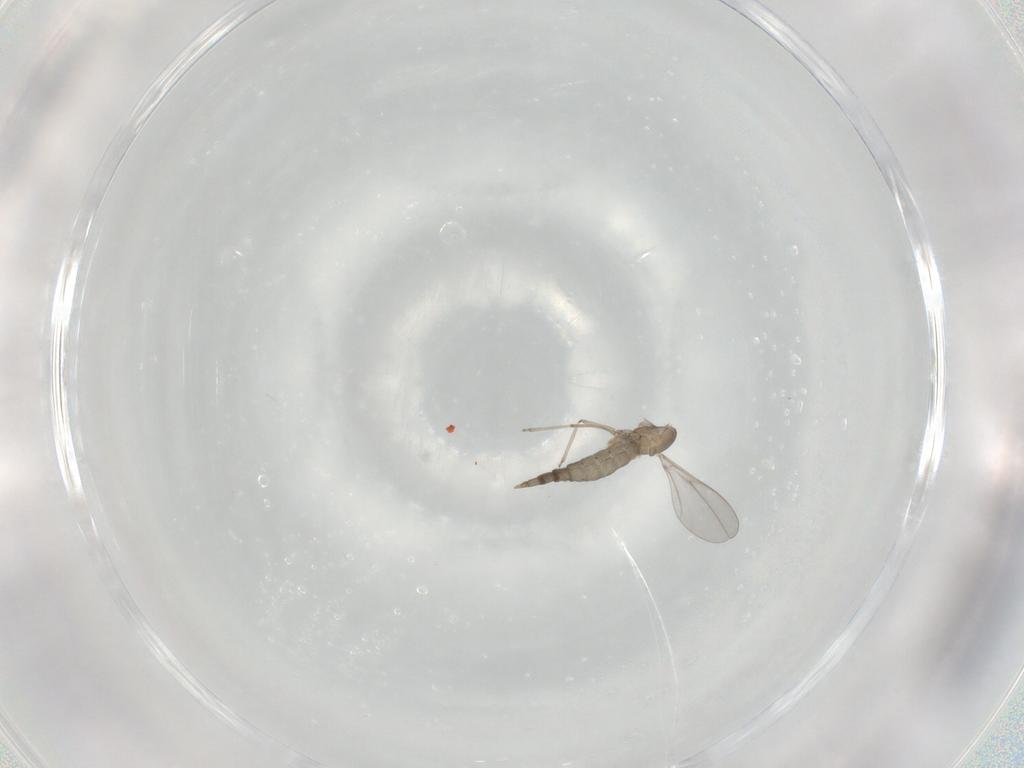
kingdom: Animalia
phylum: Arthropoda
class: Insecta
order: Diptera
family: Cecidomyiidae
